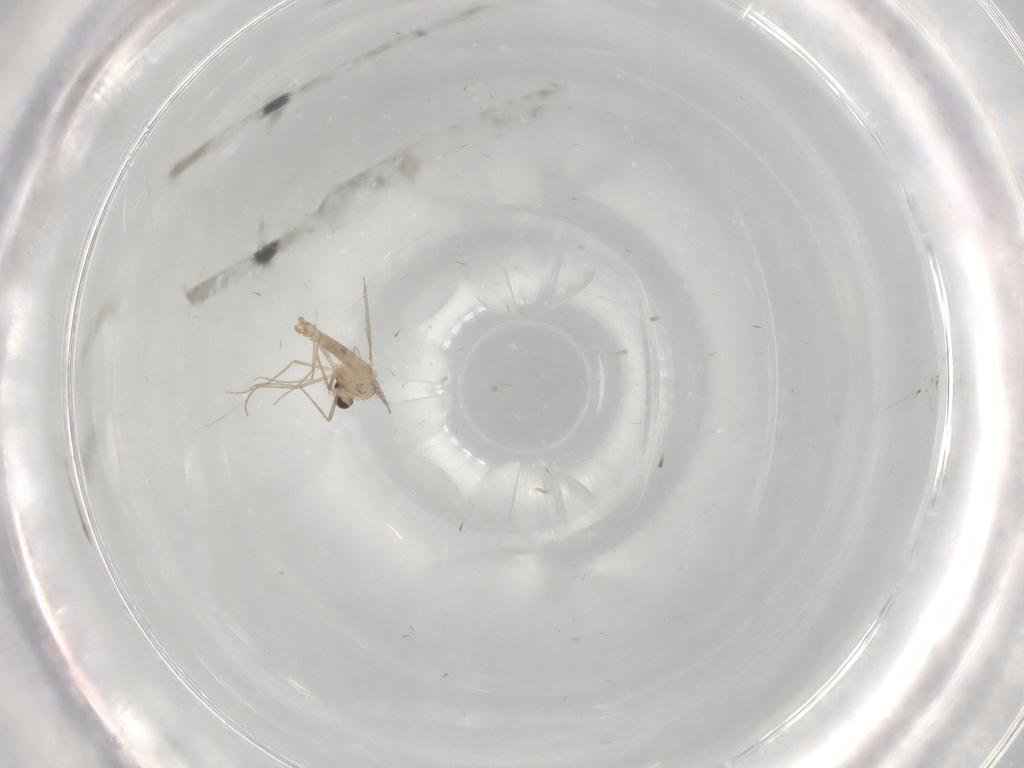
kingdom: Animalia
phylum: Arthropoda
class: Insecta
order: Diptera
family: Chironomidae
